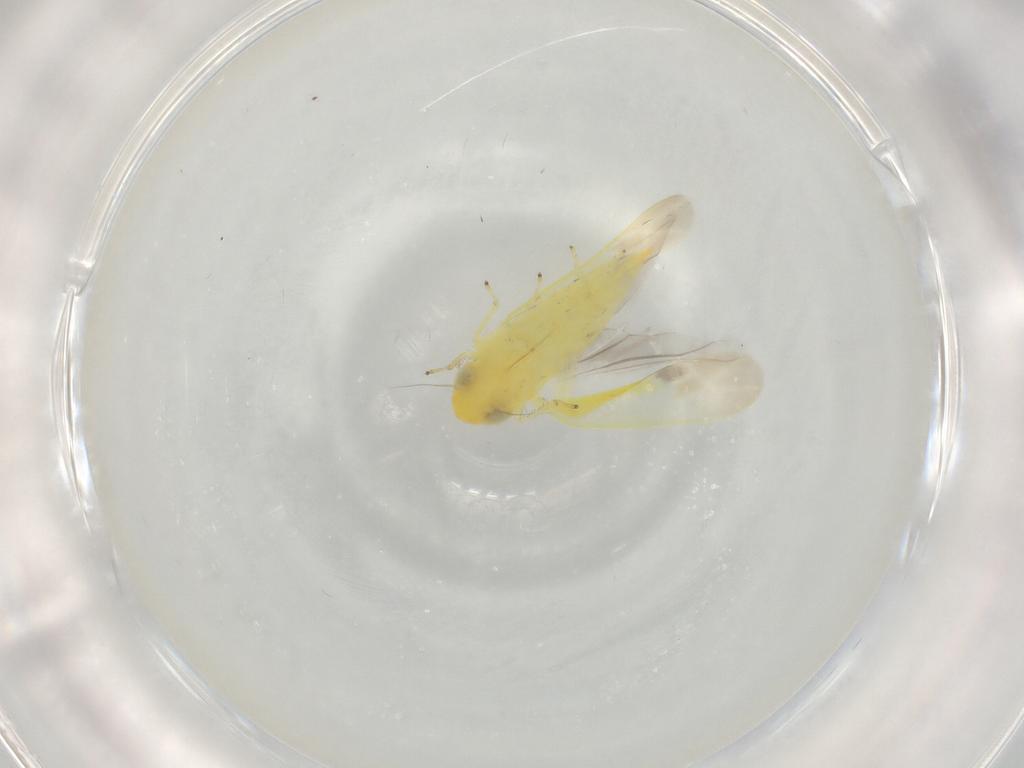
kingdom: Animalia
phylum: Arthropoda
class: Insecta
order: Hemiptera
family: Cicadellidae
